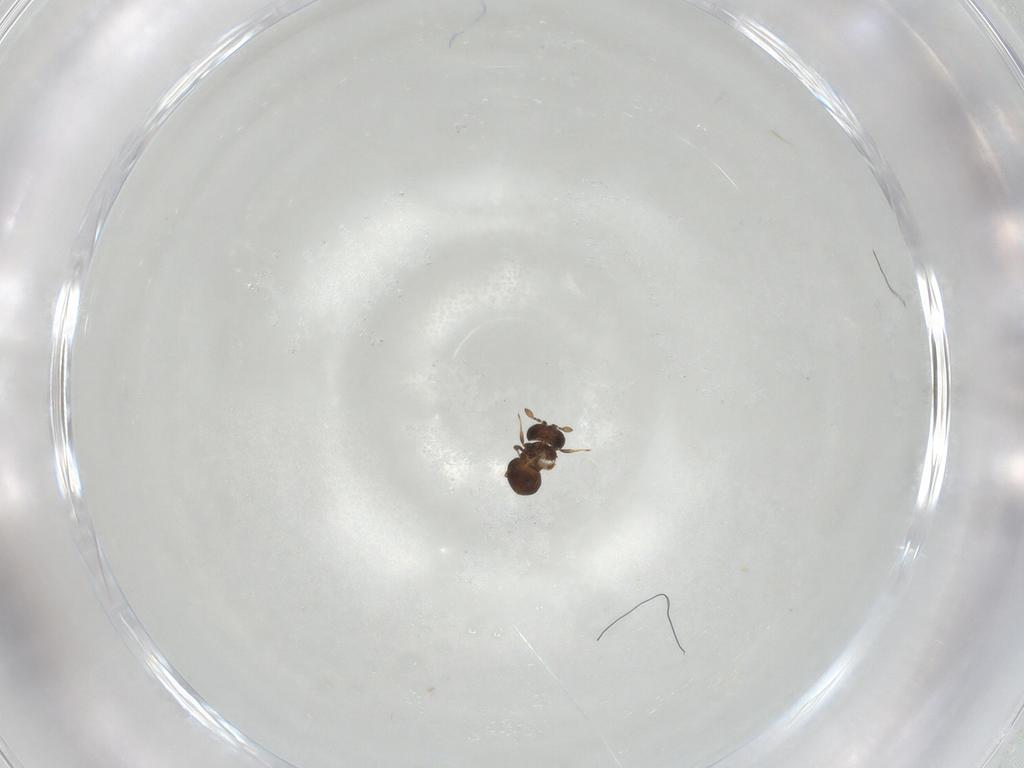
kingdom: Animalia
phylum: Arthropoda
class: Insecta
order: Hymenoptera
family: Scelionidae
